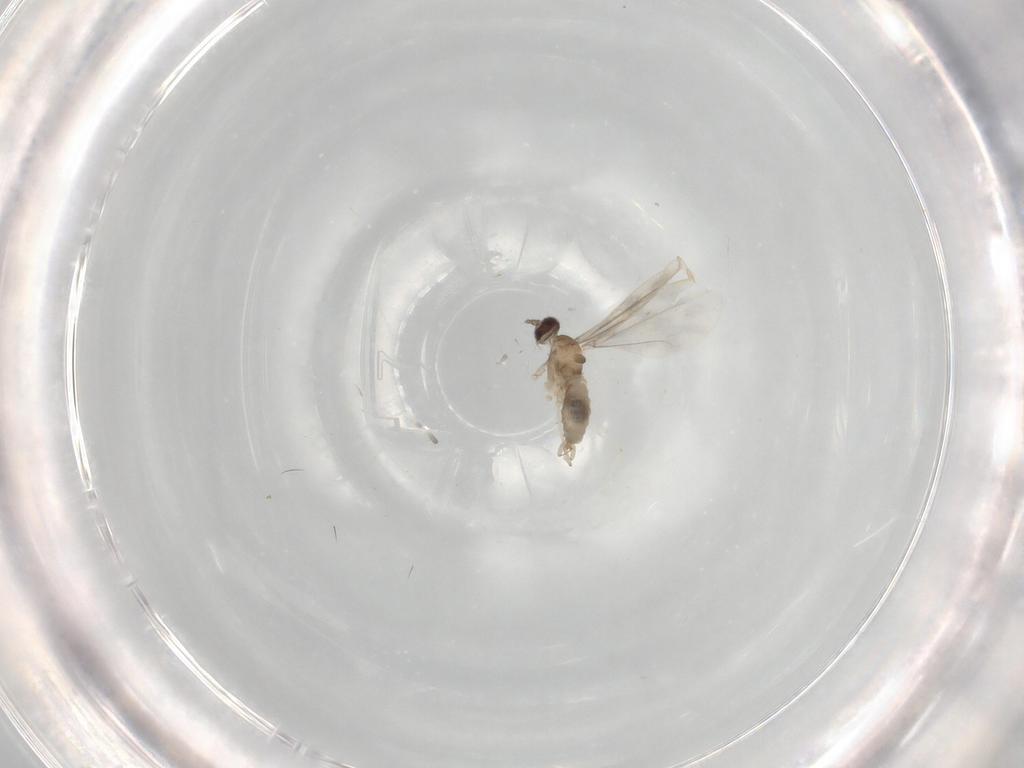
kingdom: Animalia
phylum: Arthropoda
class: Insecta
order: Diptera
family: Cecidomyiidae
